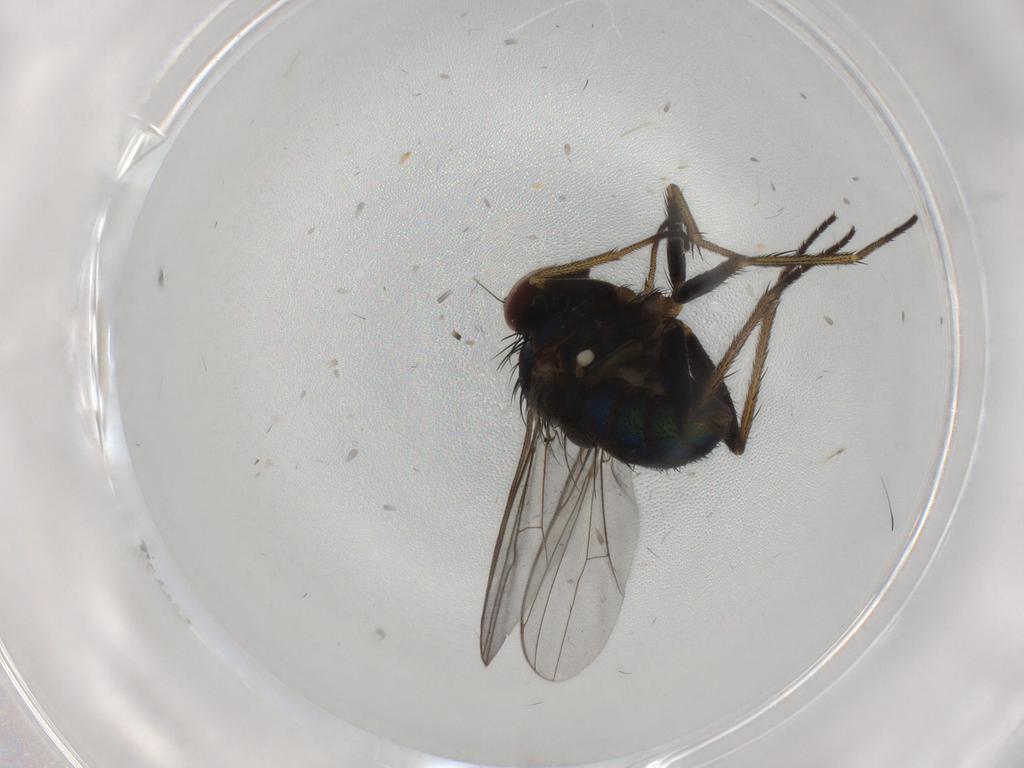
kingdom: Animalia
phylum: Arthropoda
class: Insecta
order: Diptera
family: Dolichopodidae
